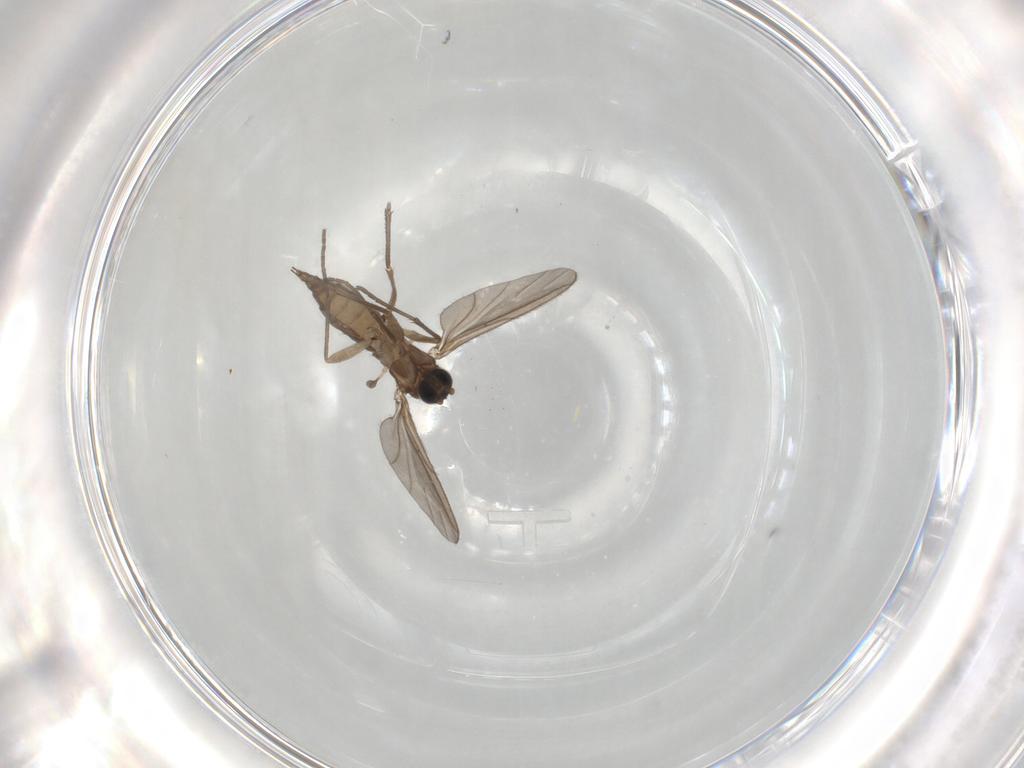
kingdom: Animalia
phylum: Arthropoda
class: Insecta
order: Diptera
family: Sciaridae
